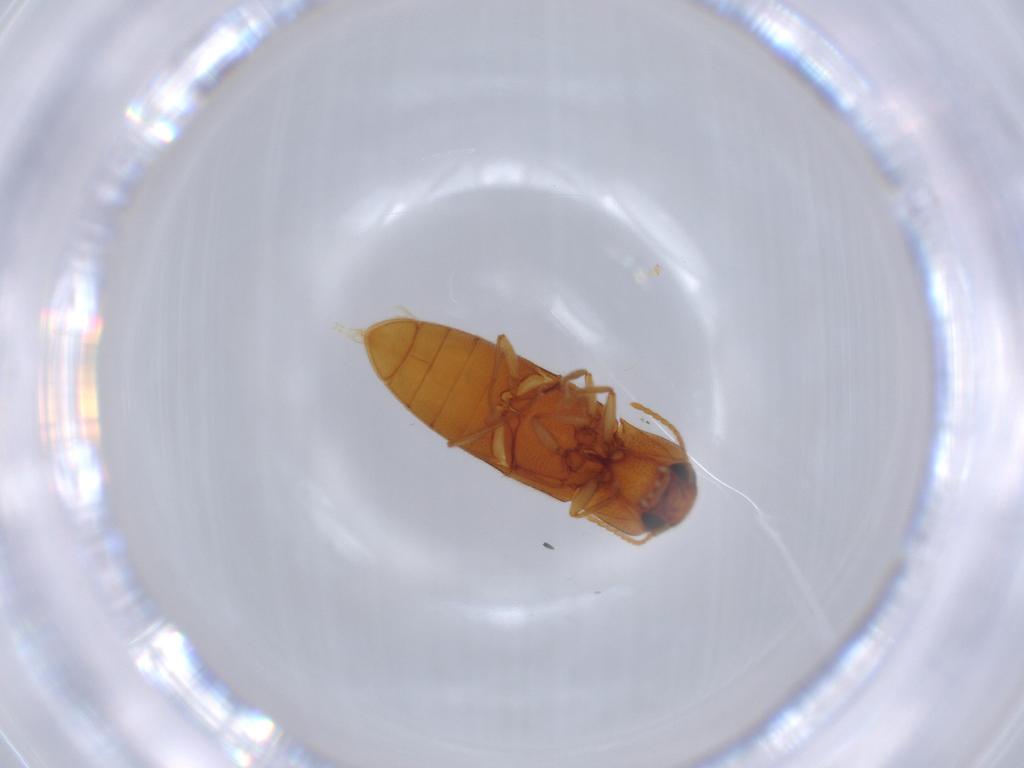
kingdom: Animalia
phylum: Arthropoda
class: Insecta
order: Coleoptera
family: Elateridae
